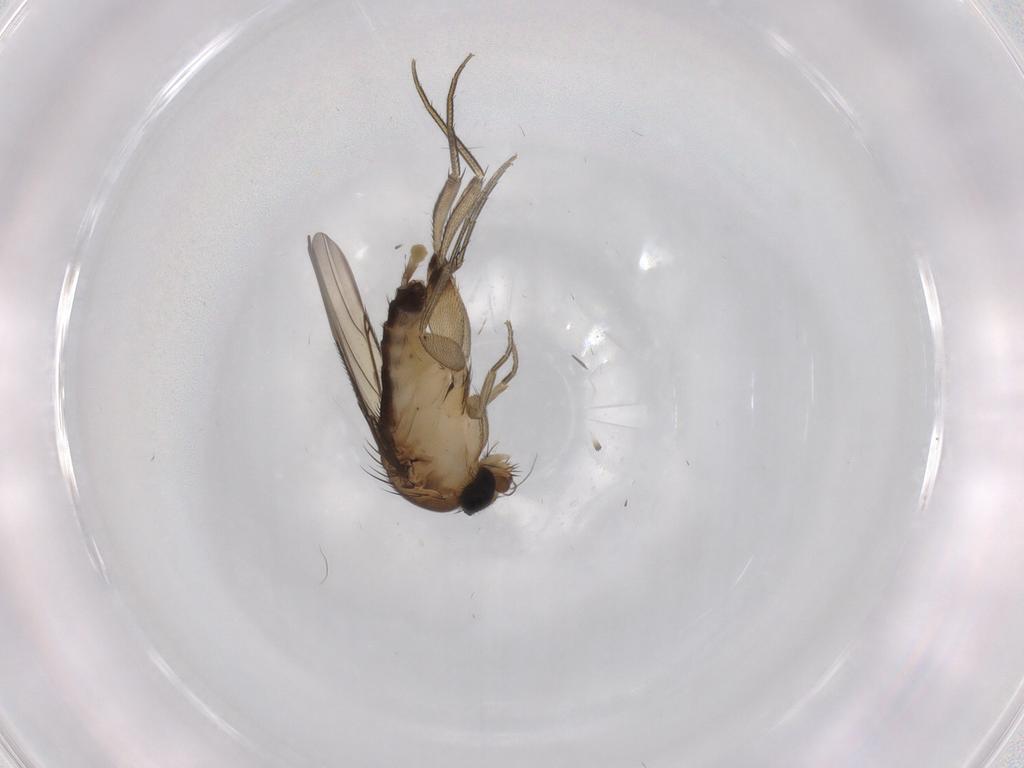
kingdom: Animalia
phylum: Arthropoda
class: Insecta
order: Diptera
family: Phoridae
